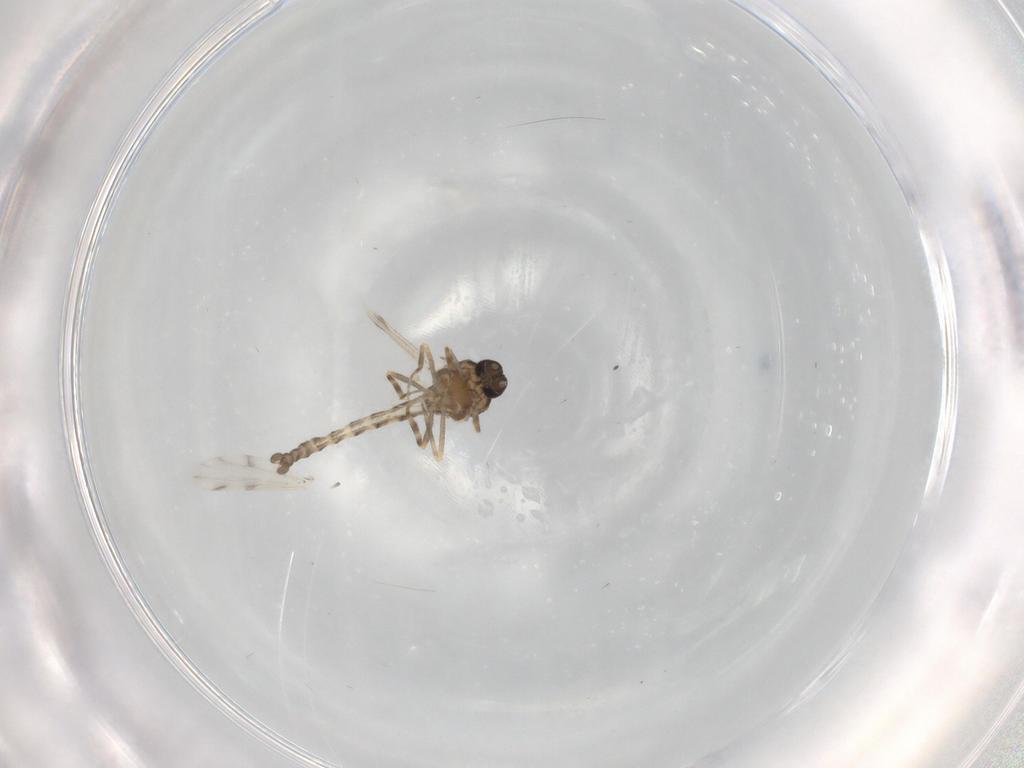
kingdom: Animalia
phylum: Arthropoda
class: Insecta
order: Diptera
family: Ceratopogonidae
